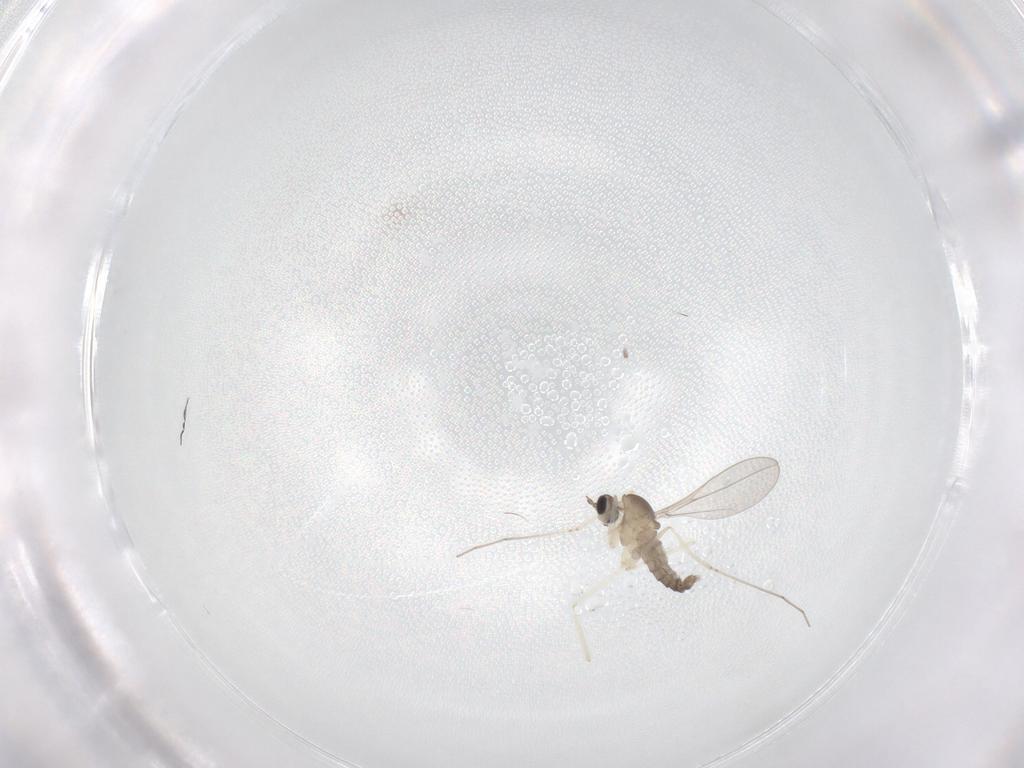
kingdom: Animalia
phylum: Arthropoda
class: Insecta
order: Diptera
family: Cecidomyiidae
